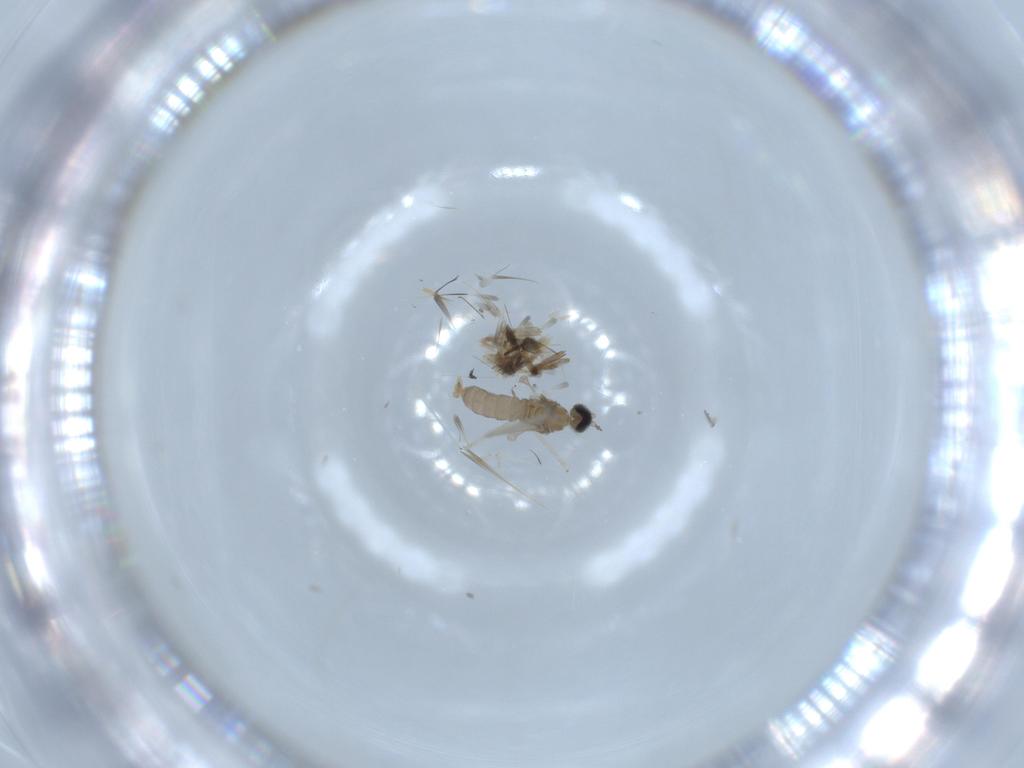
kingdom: Animalia
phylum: Arthropoda
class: Insecta
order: Diptera
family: Cecidomyiidae
